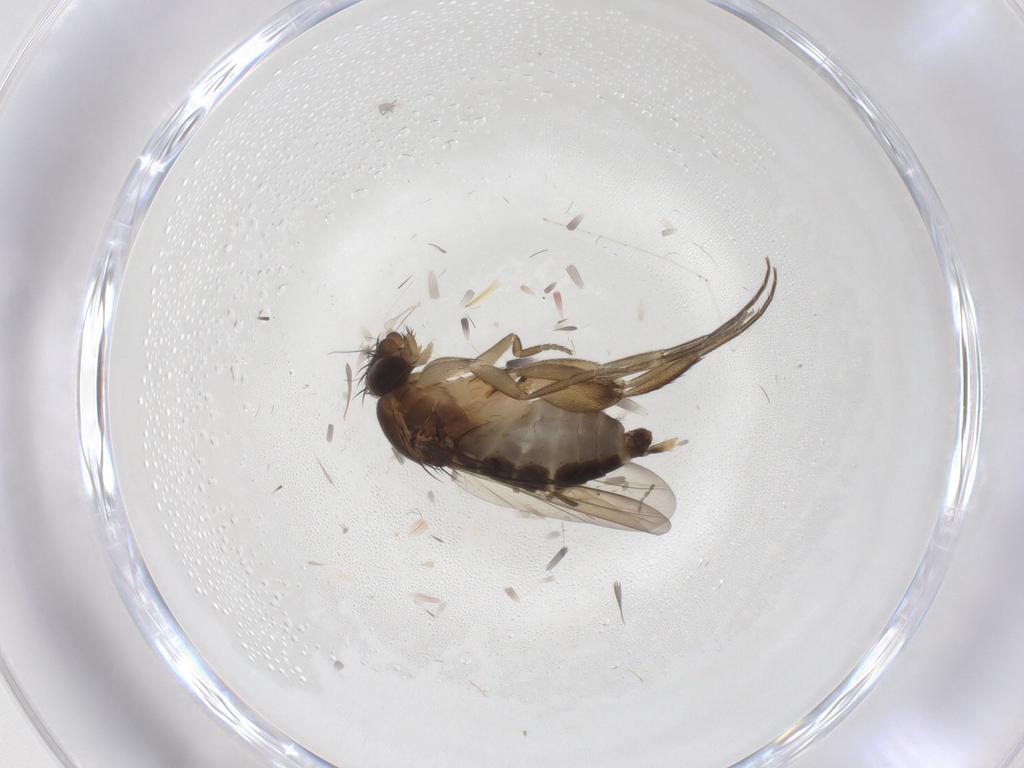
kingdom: Animalia
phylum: Arthropoda
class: Insecta
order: Diptera
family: Phoridae
